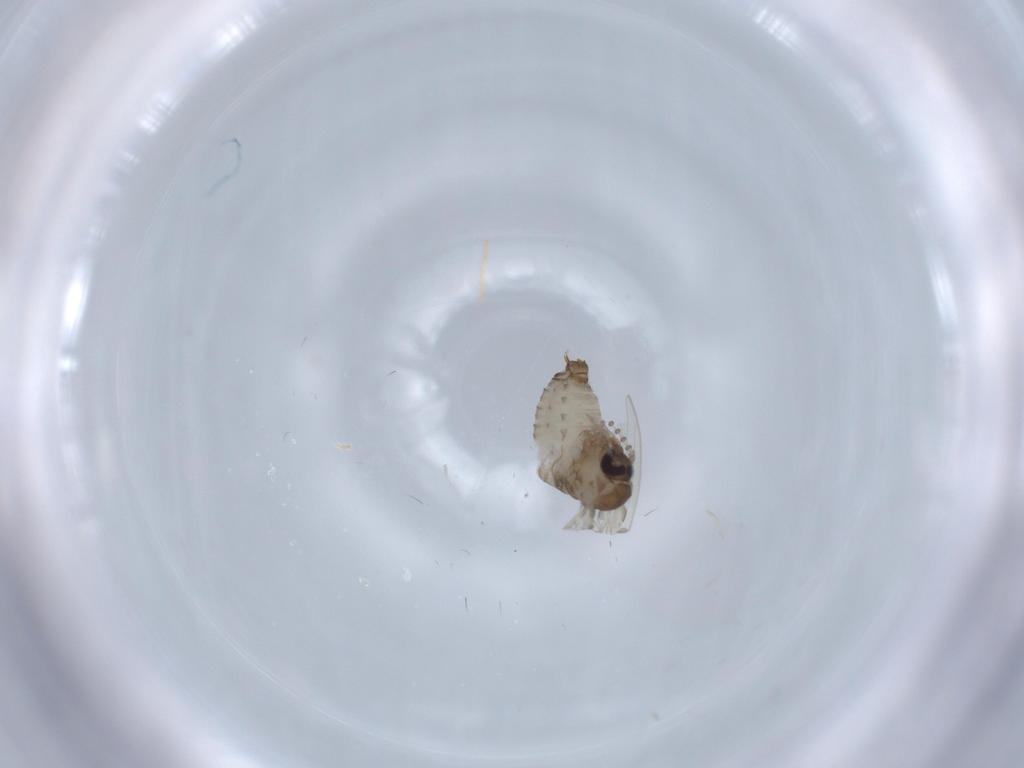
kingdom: Animalia
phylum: Arthropoda
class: Insecta
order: Diptera
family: Psychodidae
